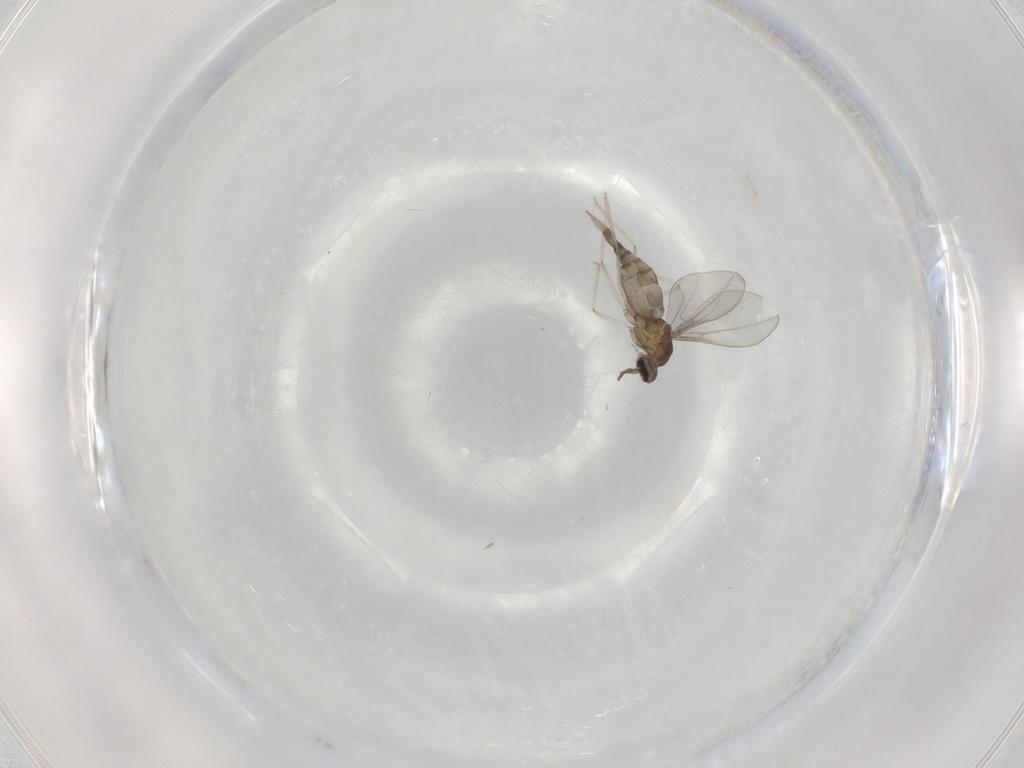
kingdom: Animalia
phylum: Arthropoda
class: Insecta
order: Diptera
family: Cecidomyiidae
